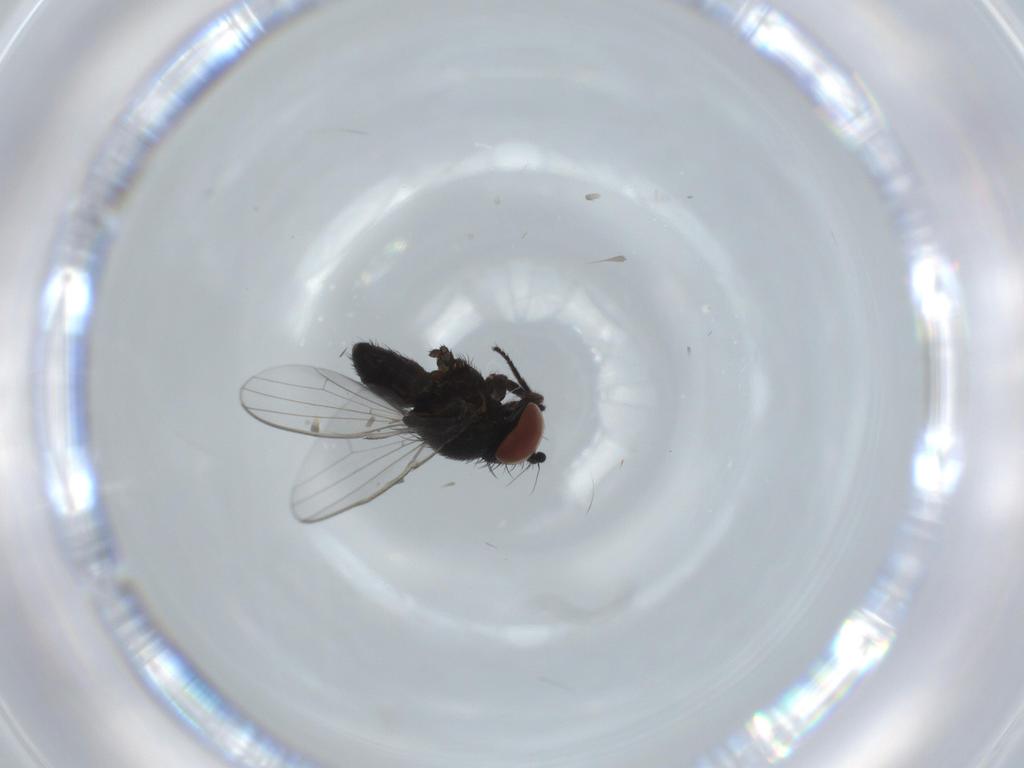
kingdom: Animalia
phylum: Arthropoda
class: Insecta
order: Diptera
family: Milichiidae
